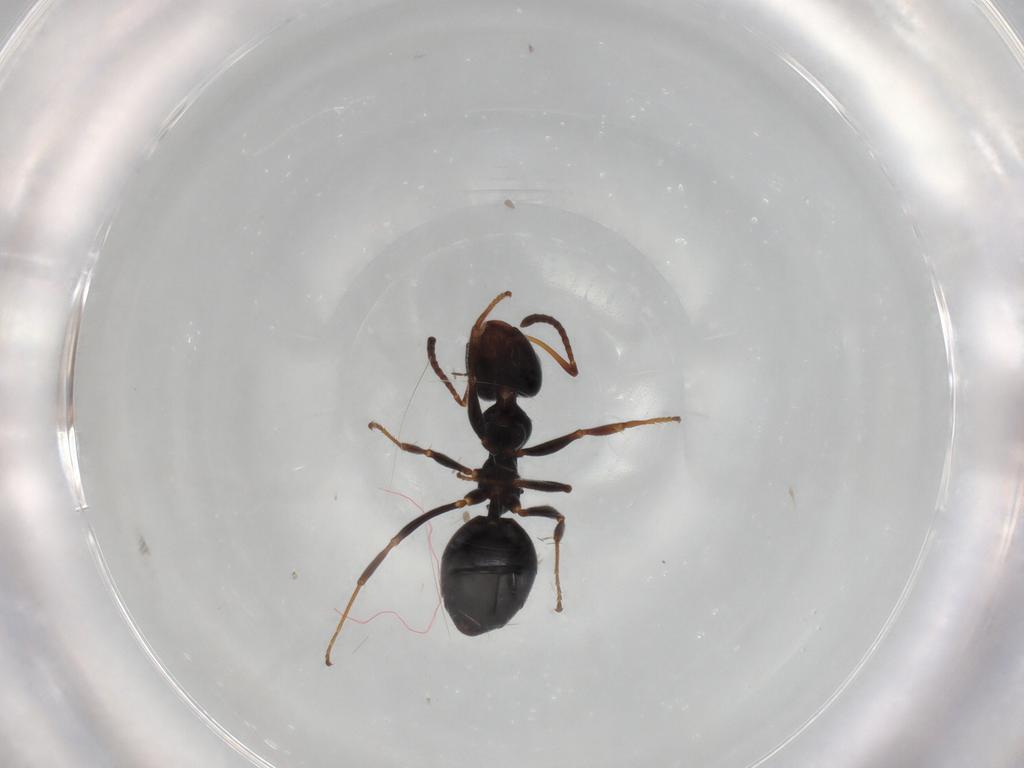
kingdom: Animalia
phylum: Arthropoda
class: Insecta
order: Hymenoptera
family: Formicidae
